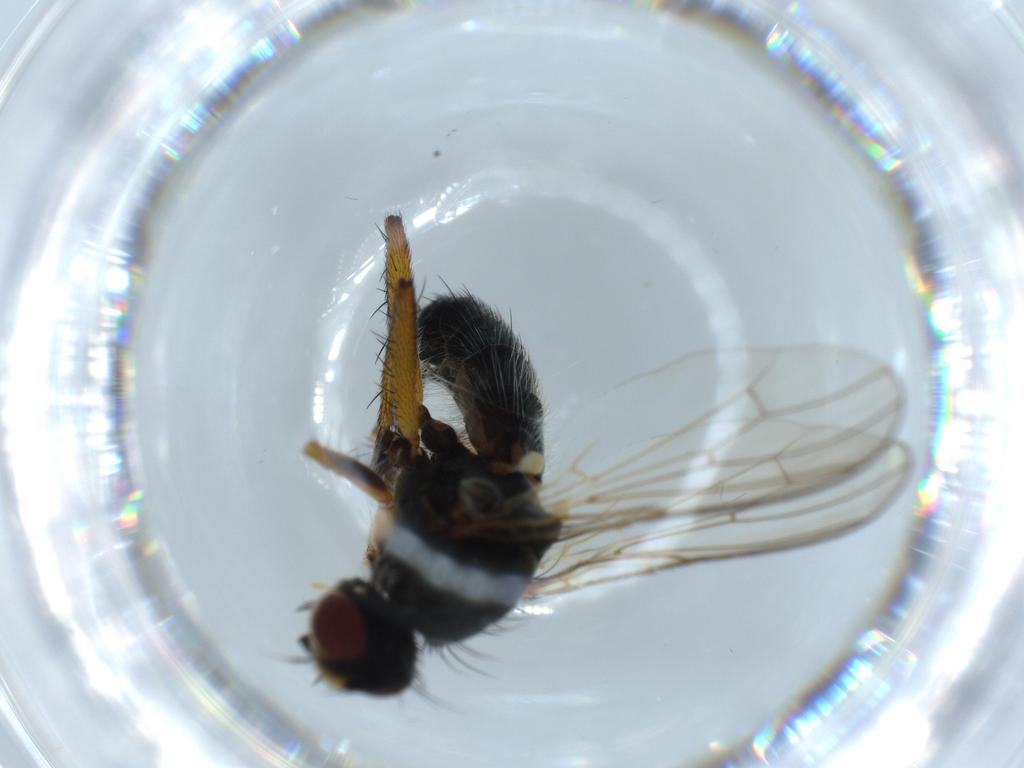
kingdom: Animalia
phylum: Arthropoda
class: Insecta
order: Diptera
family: Scathophagidae
